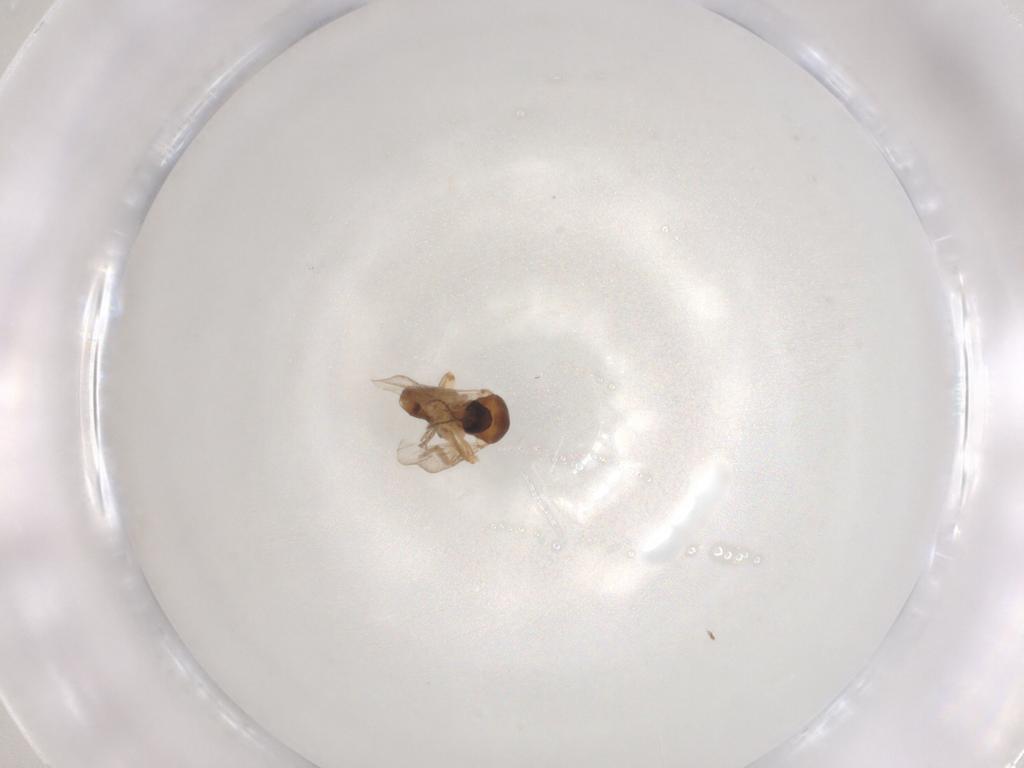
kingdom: Animalia
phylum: Arthropoda
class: Insecta
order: Diptera
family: Ceratopogonidae
